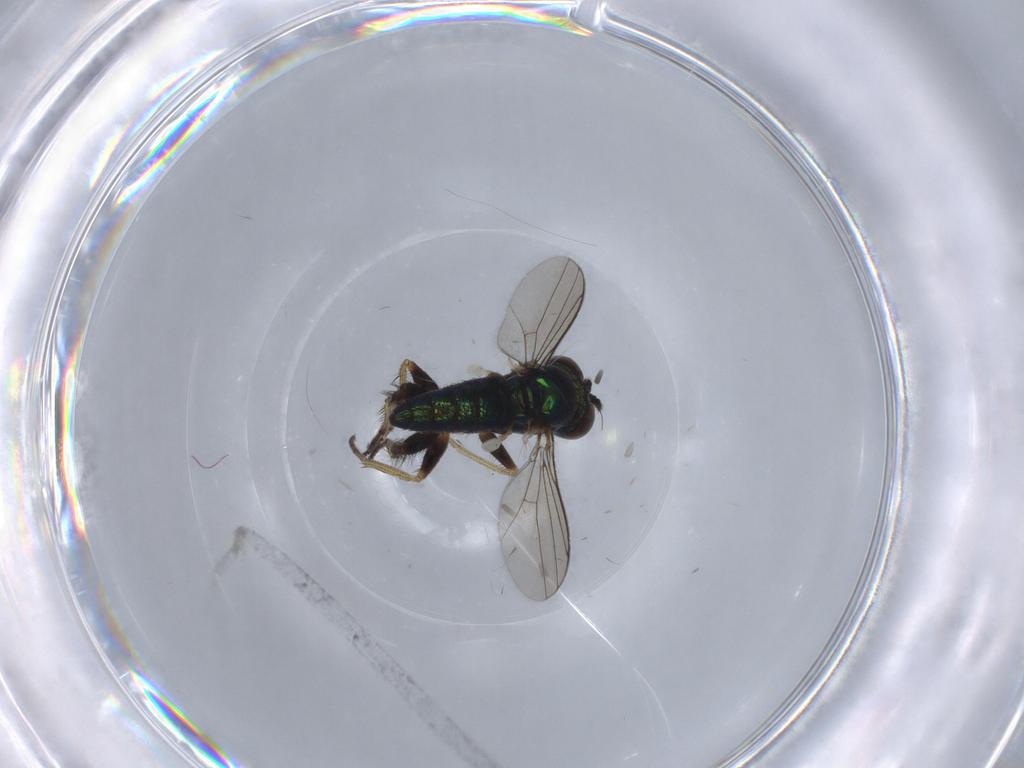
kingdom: Animalia
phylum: Arthropoda
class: Insecta
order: Diptera
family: Dolichopodidae
